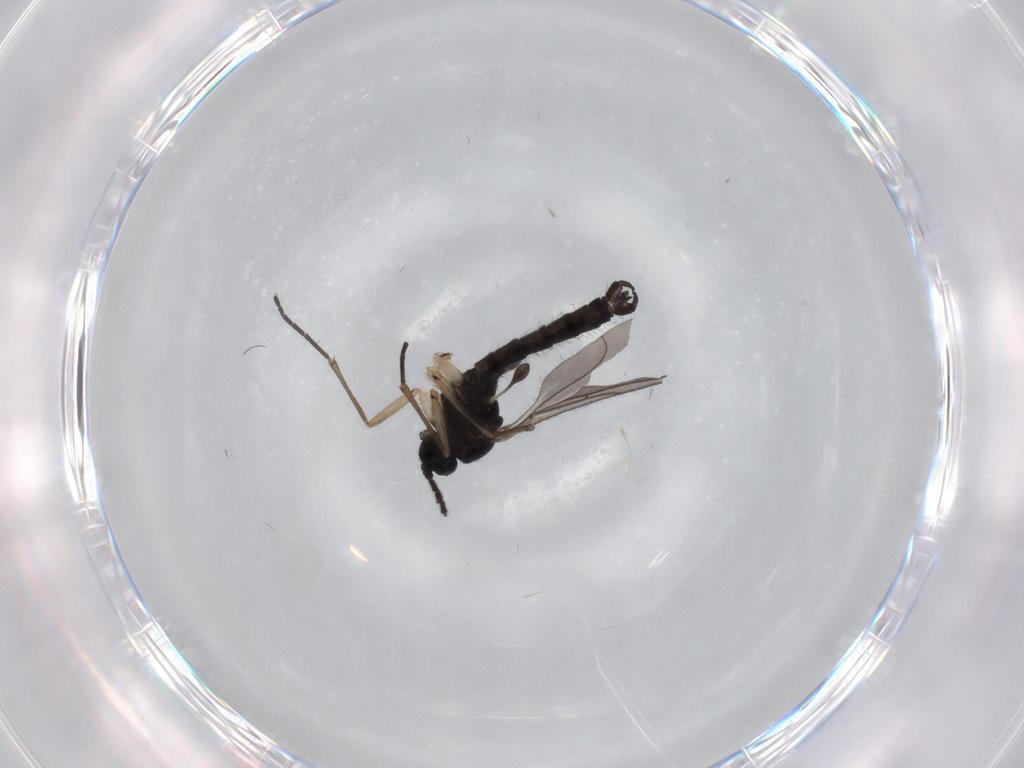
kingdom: Animalia
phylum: Arthropoda
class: Insecta
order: Diptera
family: Sciaridae
